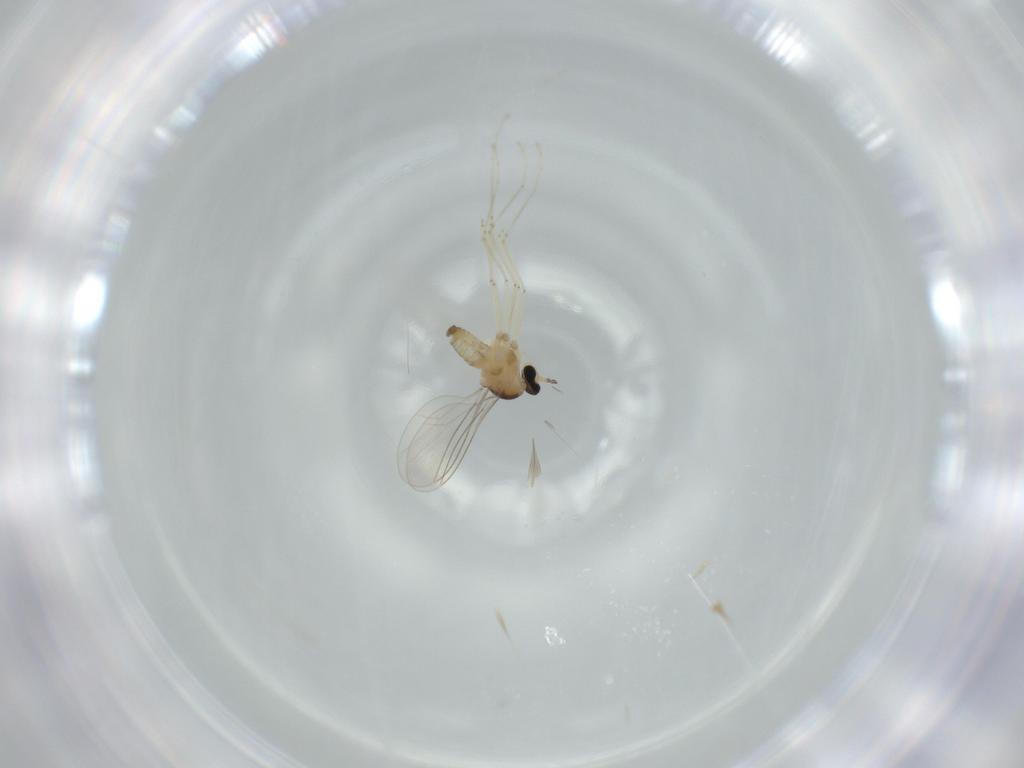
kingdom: Animalia
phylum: Arthropoda
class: Insecta
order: Diptera
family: Cecidomyiidae
